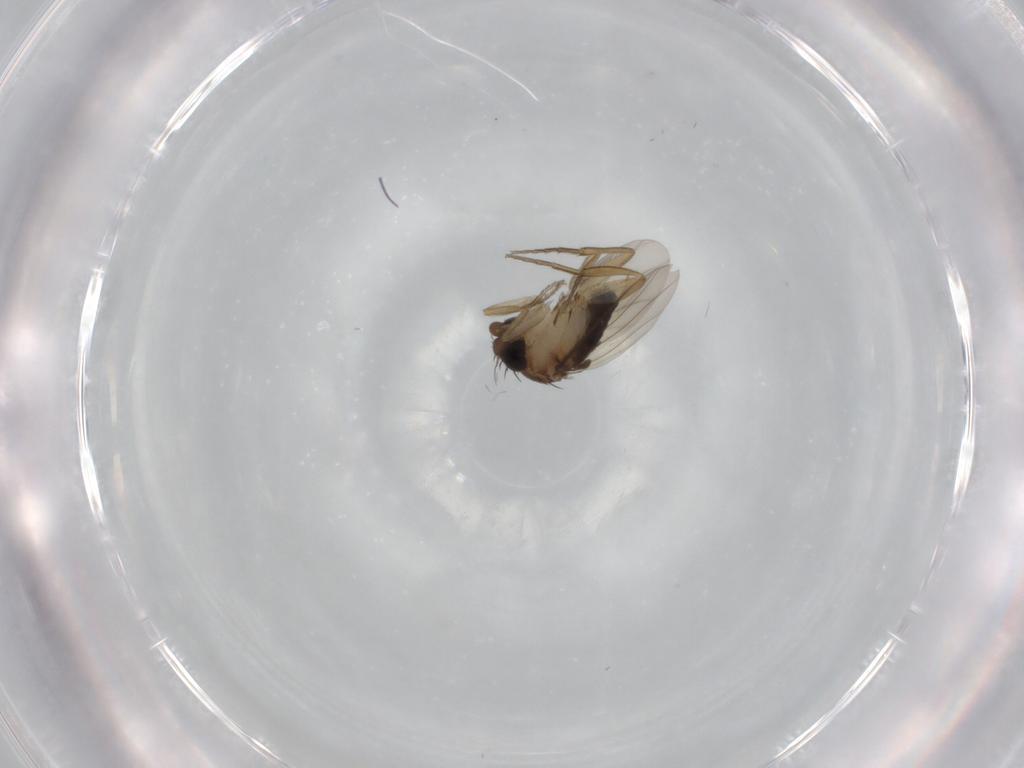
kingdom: Animalia
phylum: Arthropoda
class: Insecta
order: Diptera
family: Phoridae
